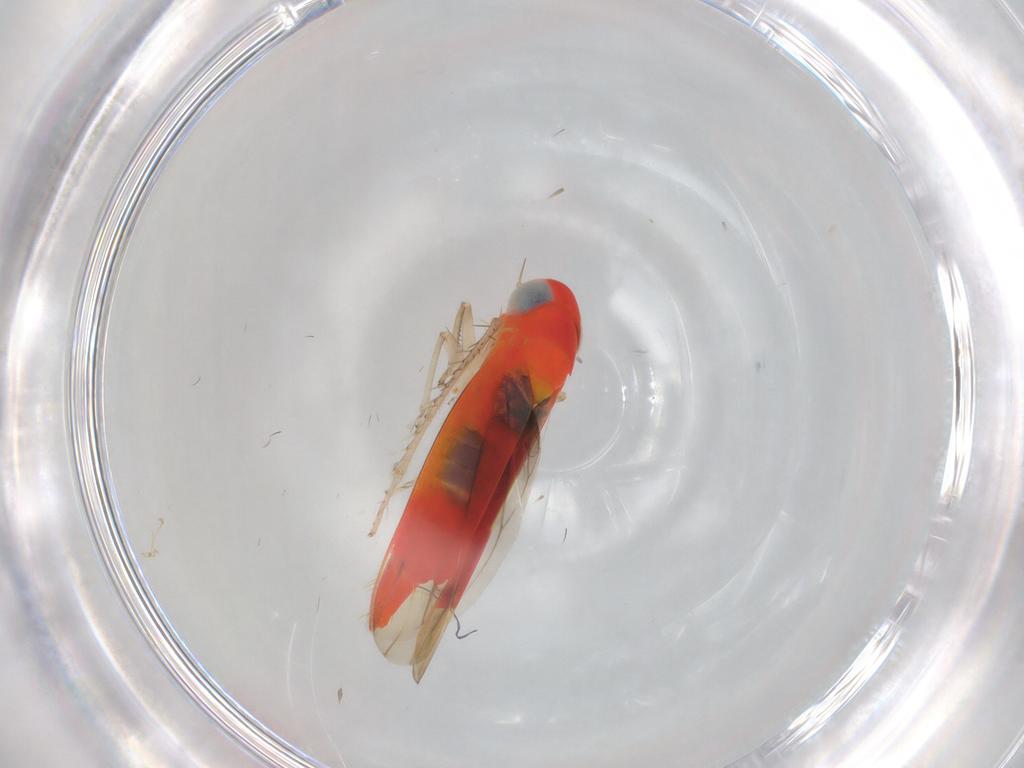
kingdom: Animalia
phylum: Arthropoda
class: Insecta
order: Hemiptera
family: Cicadellidae
